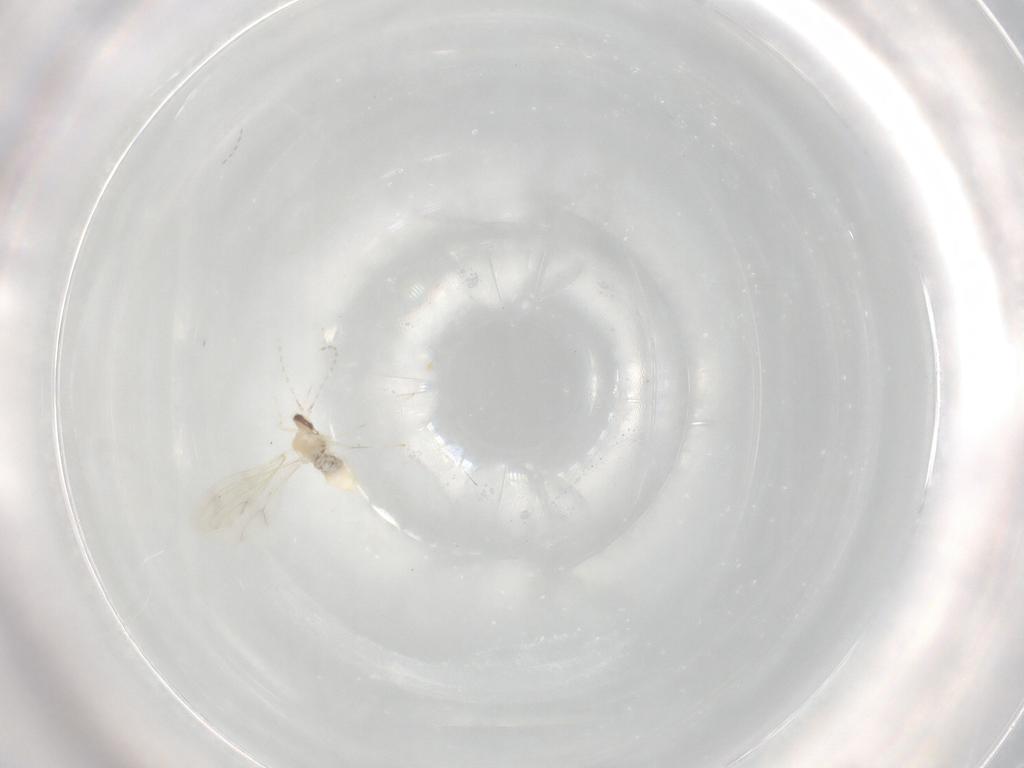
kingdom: Animalia
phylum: Arthropoda
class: Insecta
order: Diptera
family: Cecidomyiidae
